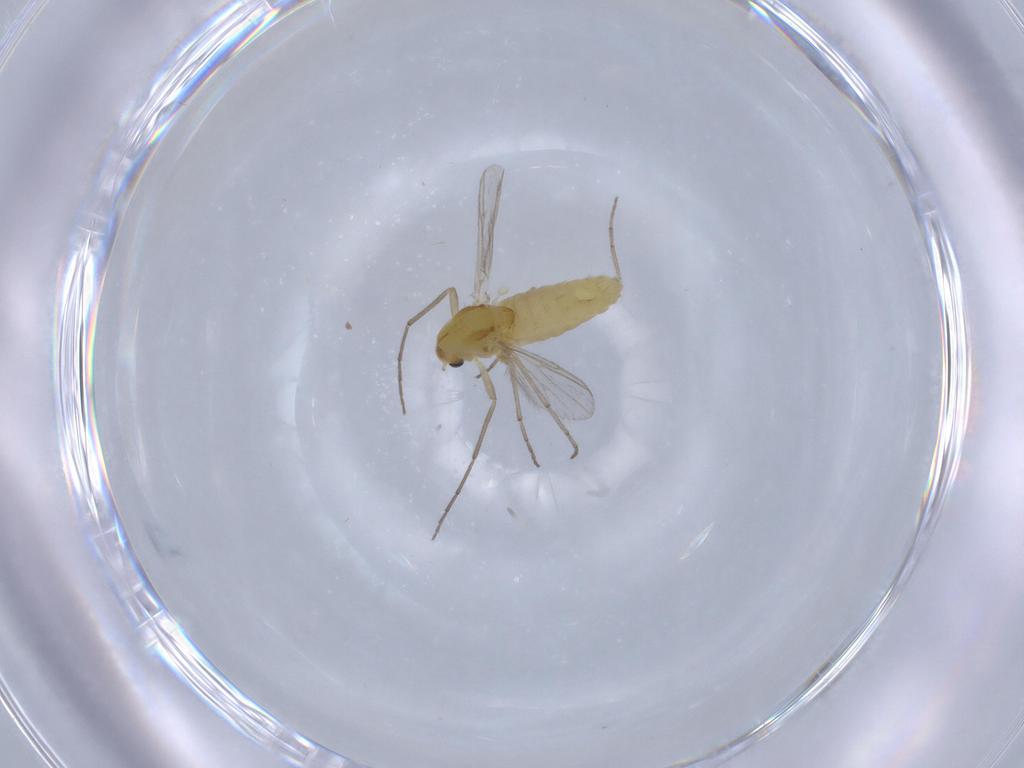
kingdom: Animalia
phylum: Arthropoda
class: Insecta
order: Diptera
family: Chironomidae
